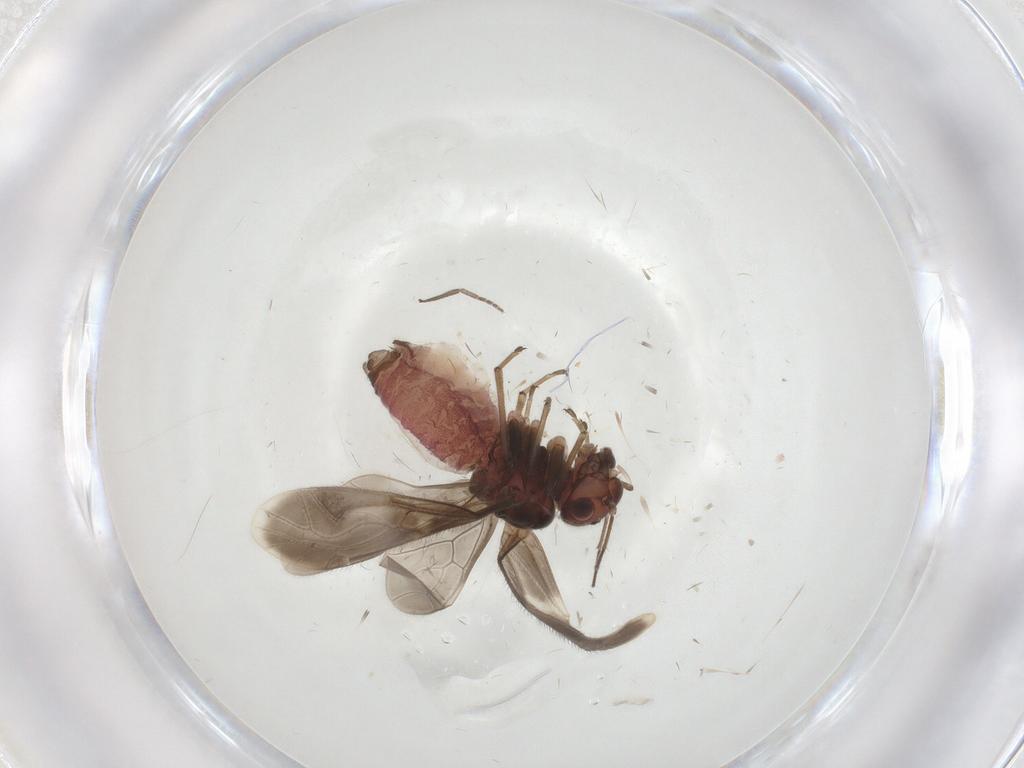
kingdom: Animalia
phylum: Arthropoda
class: Insecta
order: Psocodea
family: Caeciliusidae
